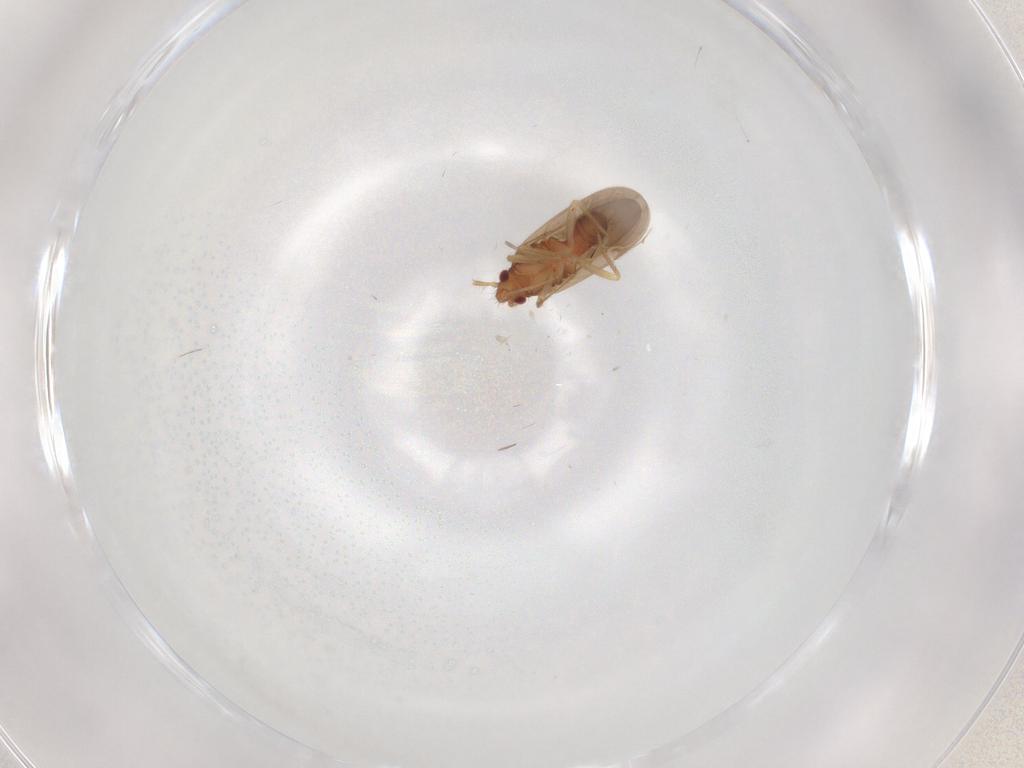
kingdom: Animalia
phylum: Arthropoda
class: Insecta
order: Hemiptera
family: Ceratocombidae
